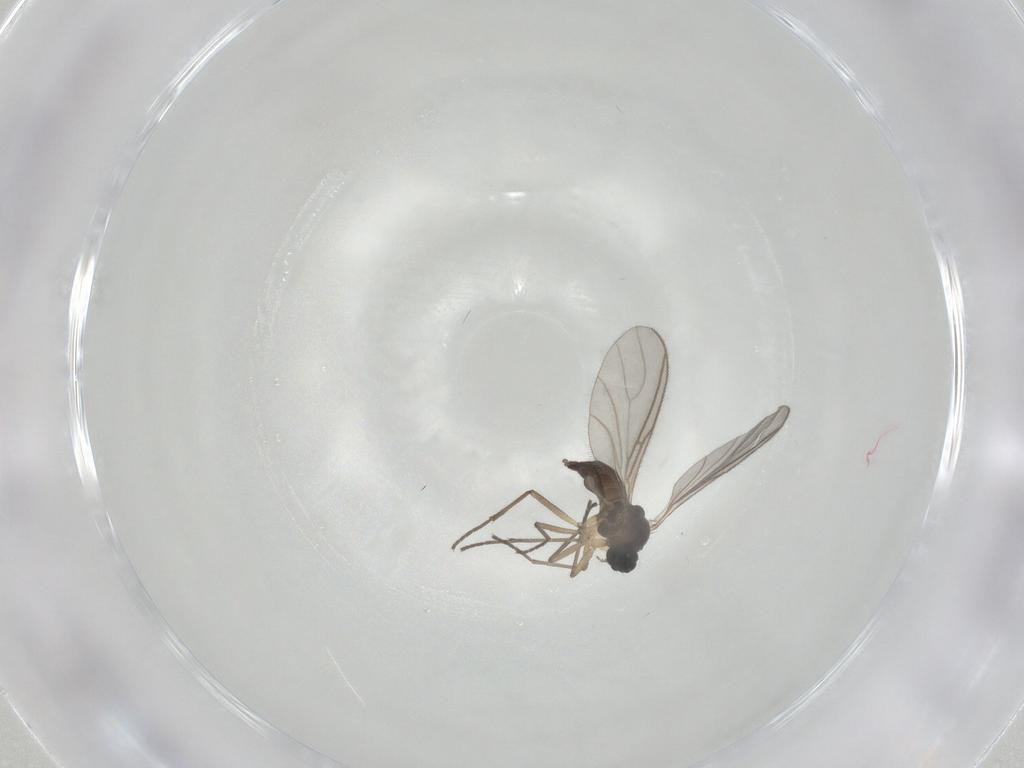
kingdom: Animalia
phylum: Arthropoda
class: Insecta
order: Diptera
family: Sciaridae
